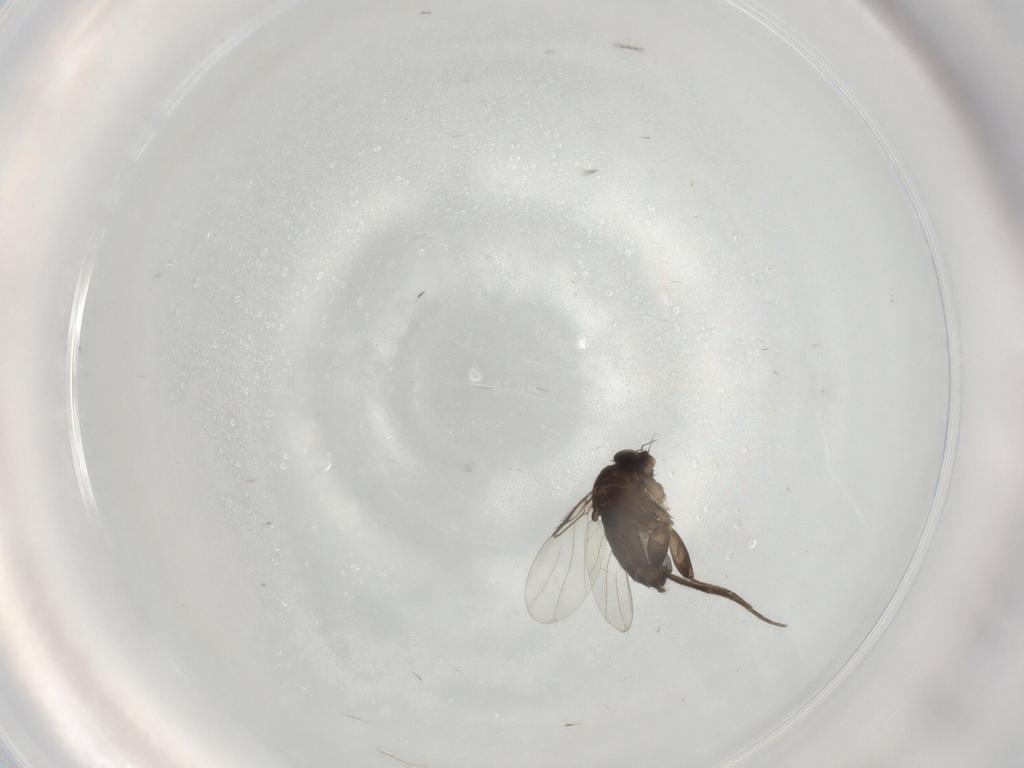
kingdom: Animalia
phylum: Arthropoda
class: Insecta
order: Diptera
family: Phoridae
